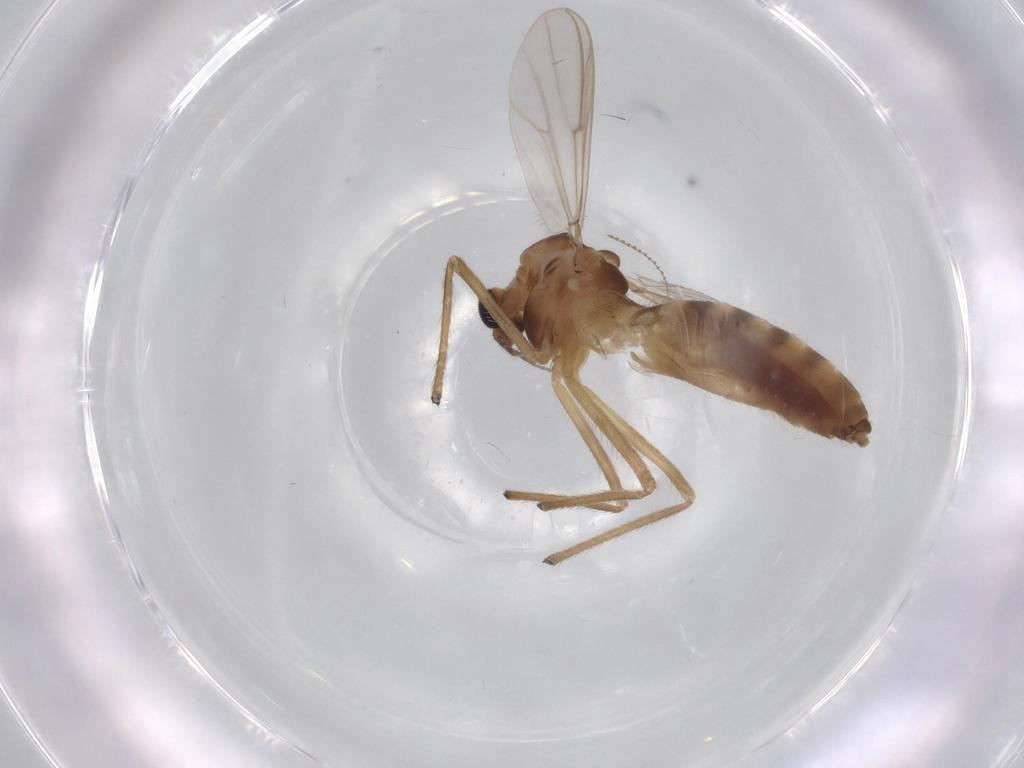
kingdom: Animalia
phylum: Arthropoda
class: Insecta
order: Diptera
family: Chironomidae
